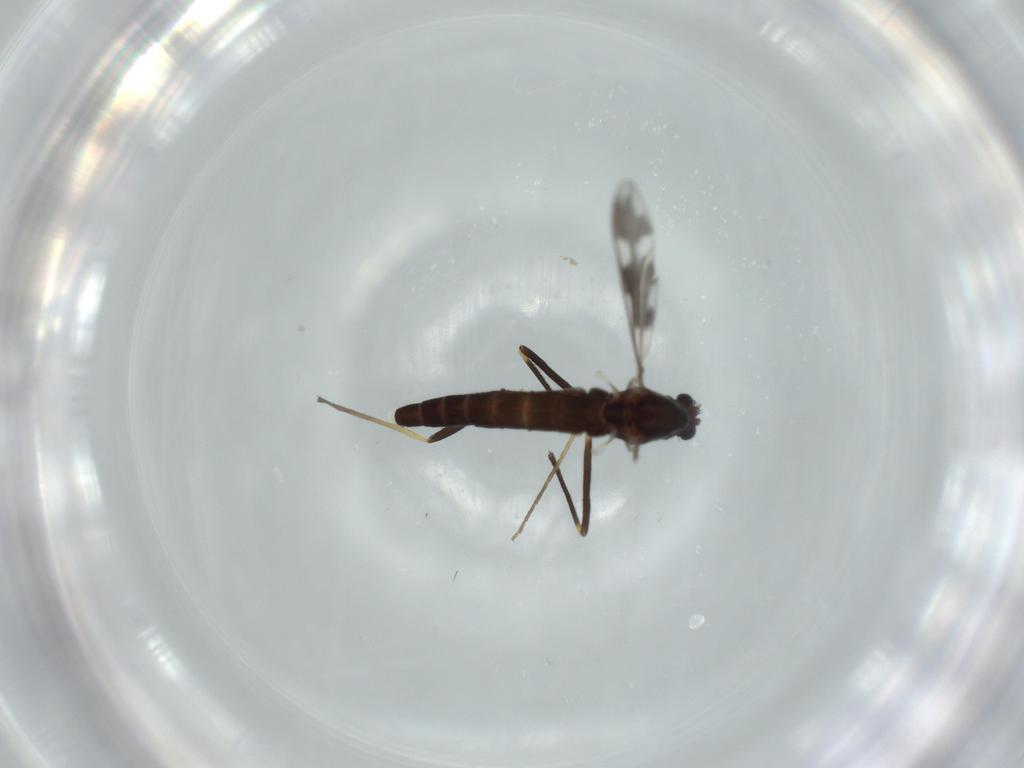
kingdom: Animalia
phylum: Arthropoda
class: Insecta
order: Diptera
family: Chironomidae
